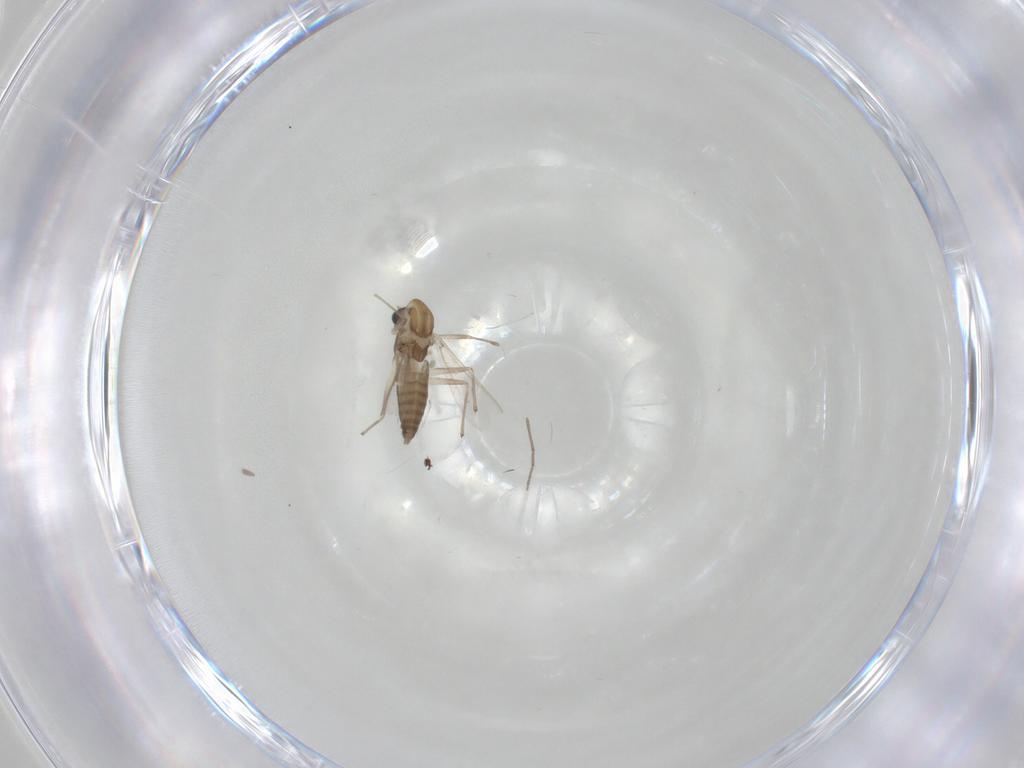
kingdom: Animalia
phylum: Arthropoda
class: Insecta
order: Diptera
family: Chironomidae
